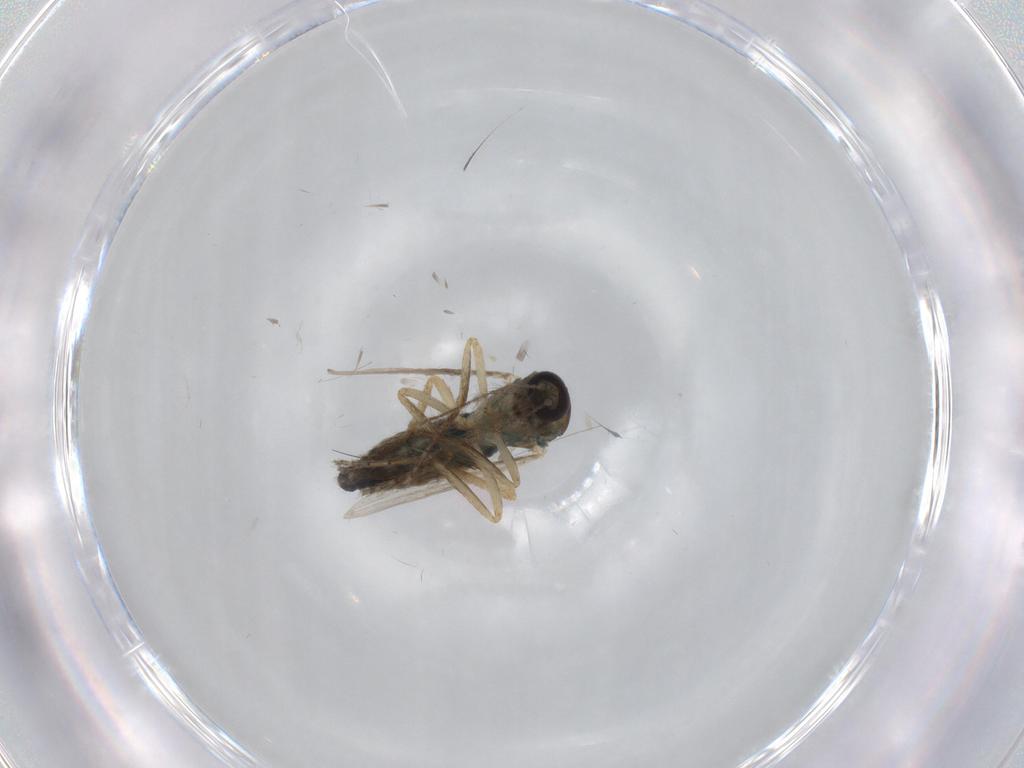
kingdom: Animalia
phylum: Arthropoda
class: Insecta
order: Diptera
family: Ceratopogonidae
